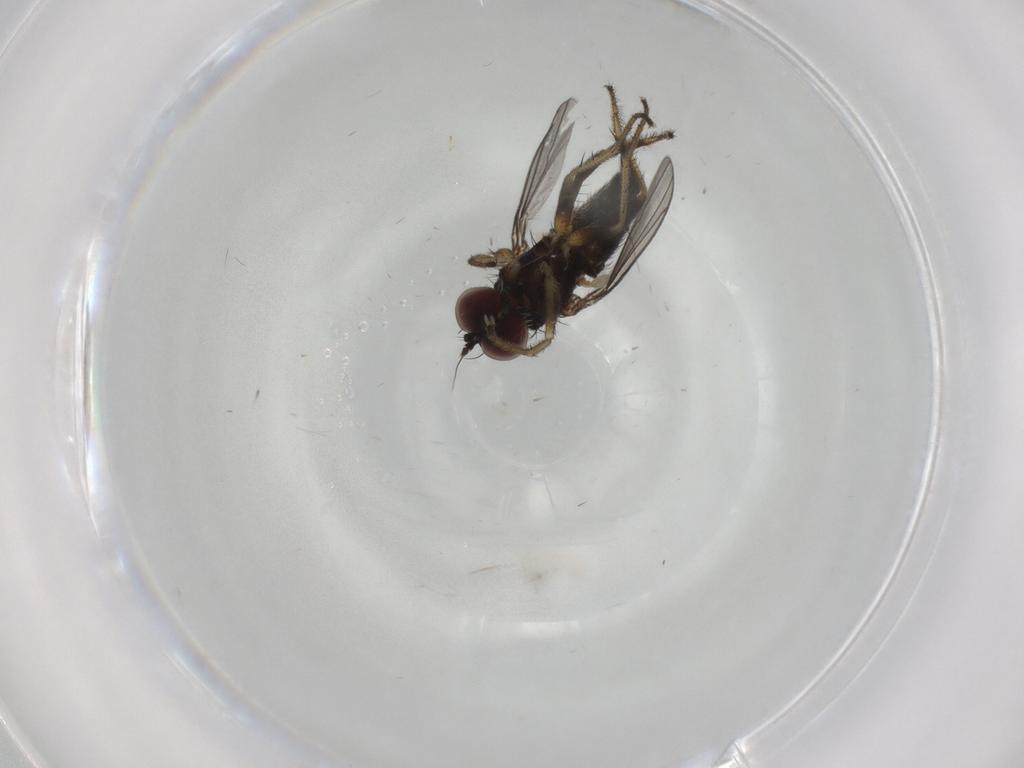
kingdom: Animalia
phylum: Arthropoda
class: Insecta
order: Diptera
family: Dolichopodidae
